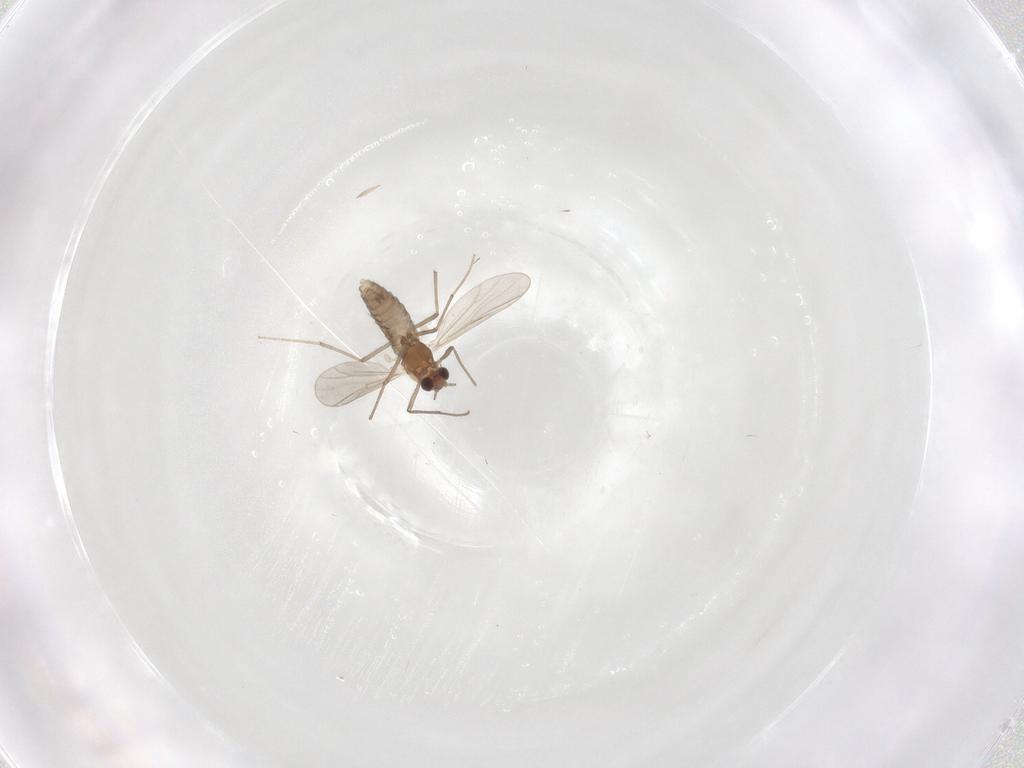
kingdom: Animalia
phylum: Arthropoda
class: Insecta
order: Diptera
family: Chironomidae
